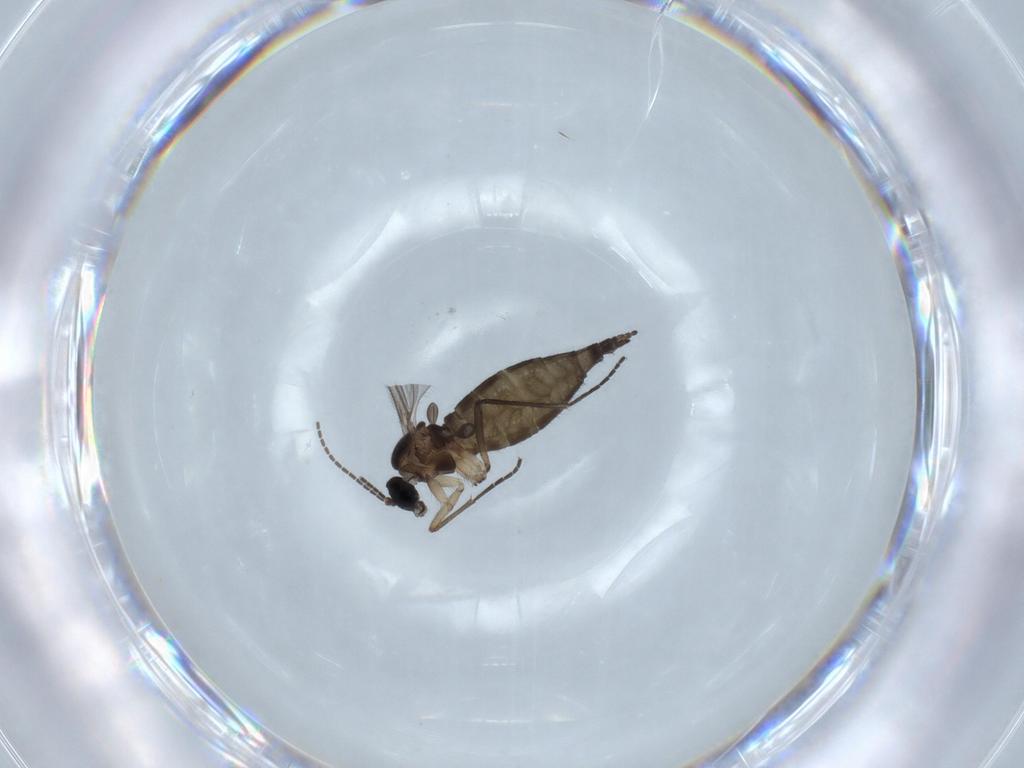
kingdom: Animalia
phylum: Arthropoda
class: Insecta
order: Diptera
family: Sciaridae
